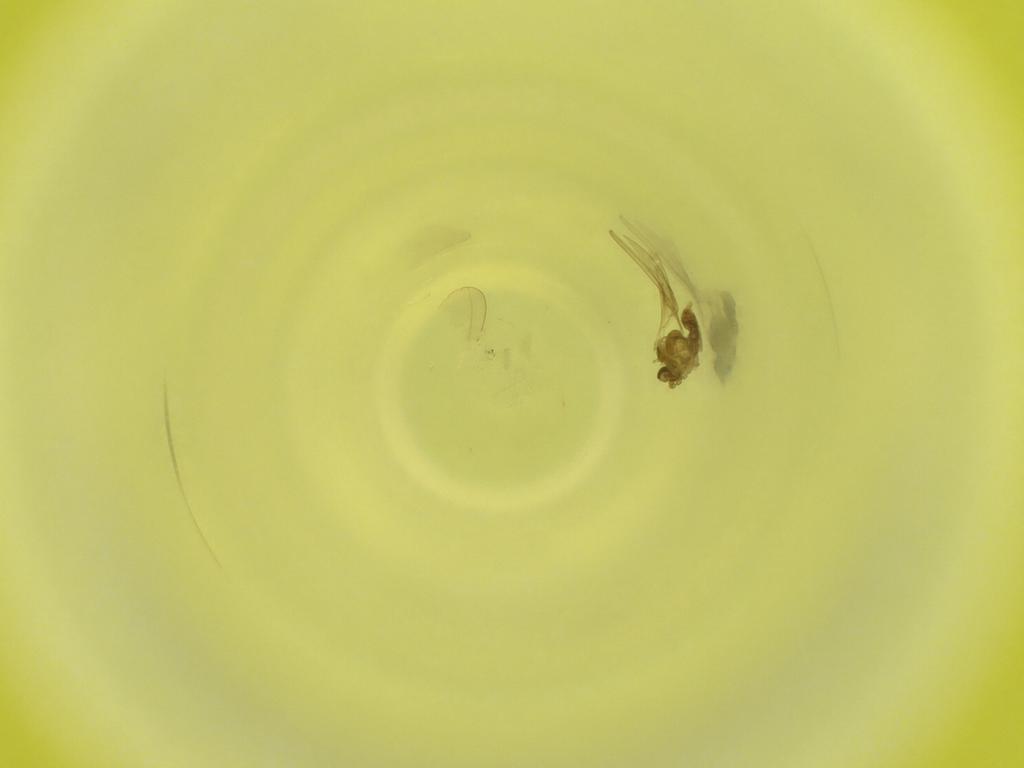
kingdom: Animalia
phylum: Arthropoda
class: Insecta
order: Diptera
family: Cecidomyiidae
